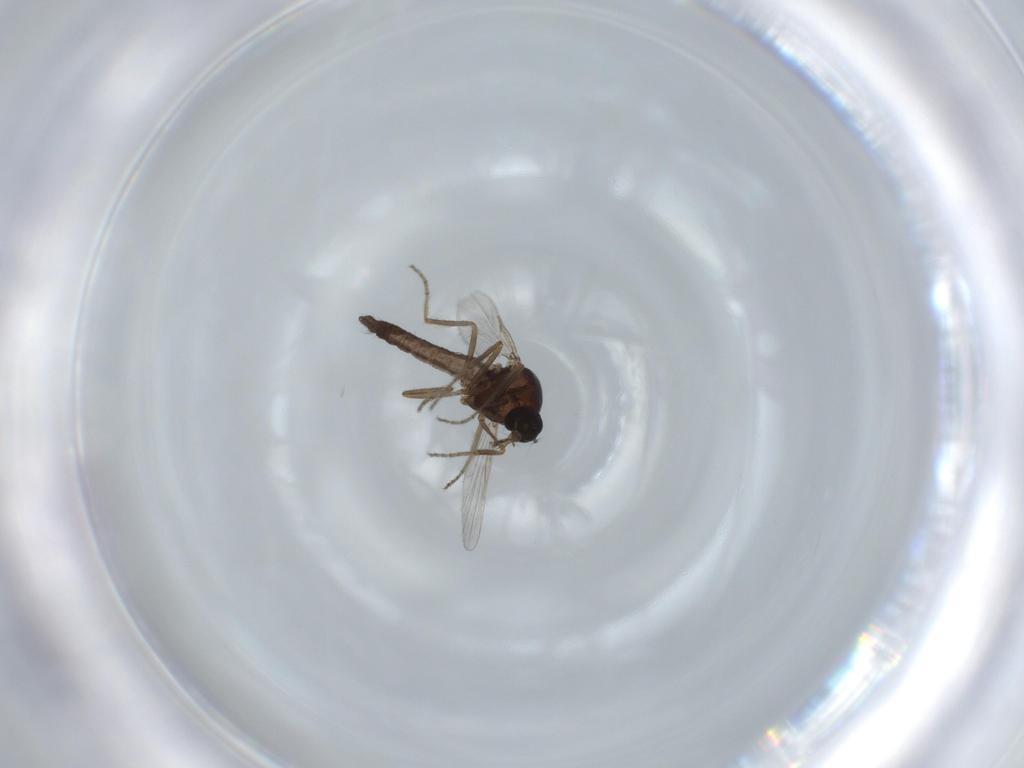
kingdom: Animalia
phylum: Arthropoda
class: Insecta
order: Diptera
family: Ceratopogonidae
